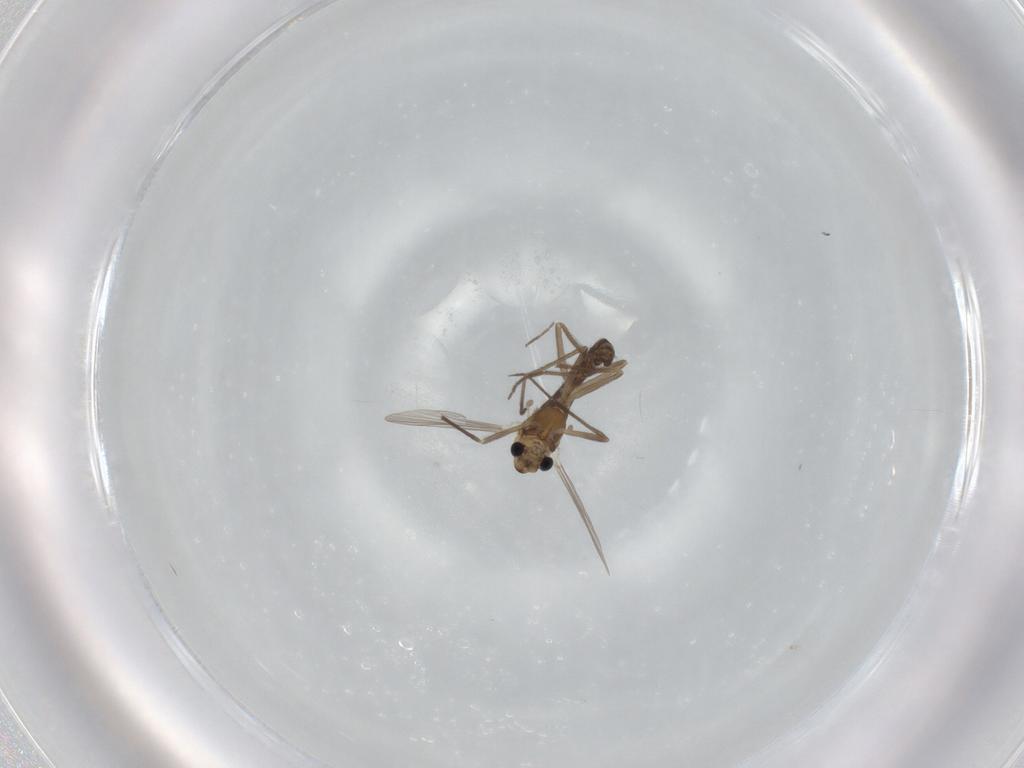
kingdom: Animalia
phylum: Arthropoda
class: Insecta
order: Diptera
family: Chironomidae
